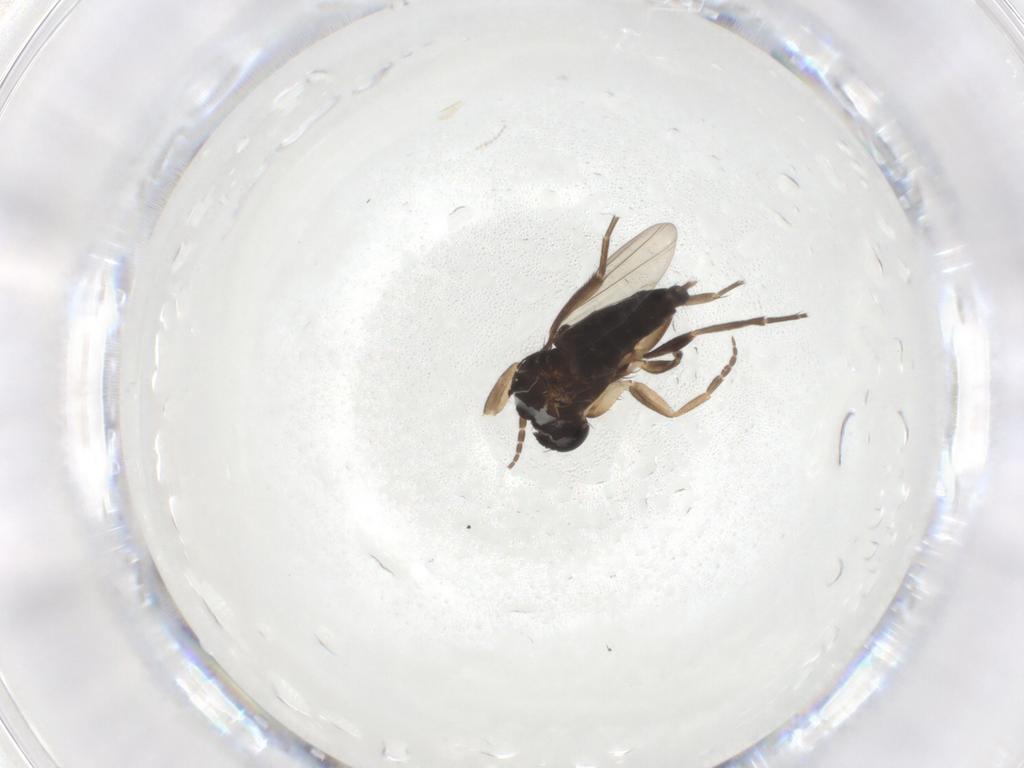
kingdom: Animalia
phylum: Arthropoda
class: Insecta
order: Diptera
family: Phoridae
